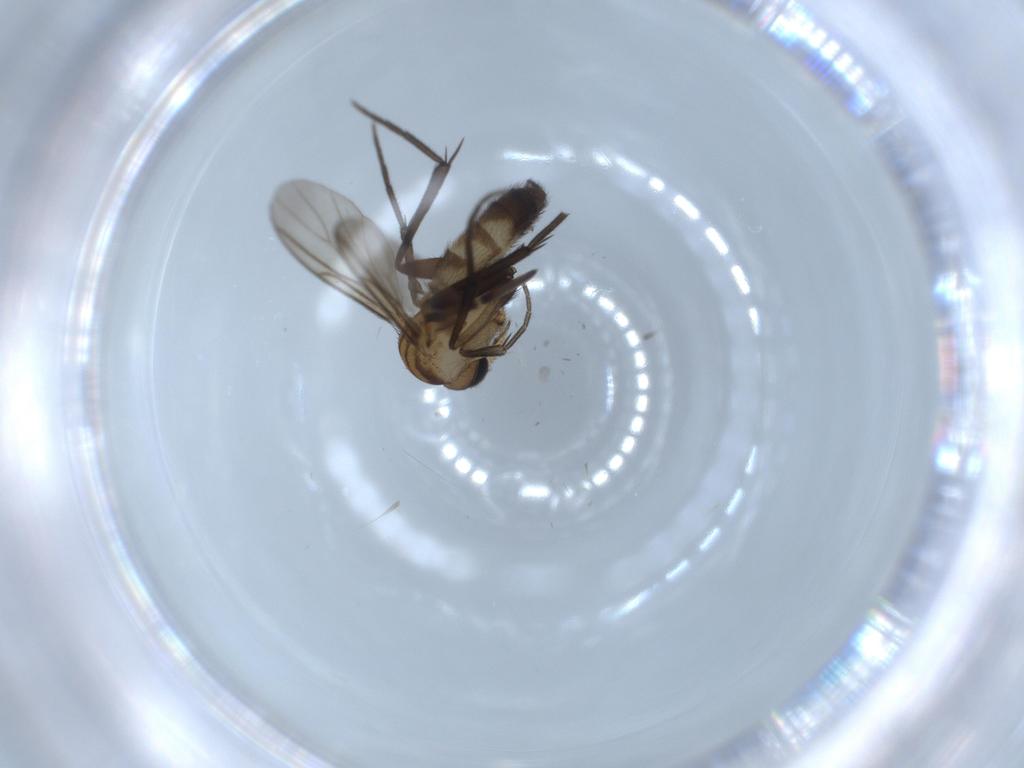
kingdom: Animalia
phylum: Arthropoda
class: Insecta
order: Diptera
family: Mycetophilidae
